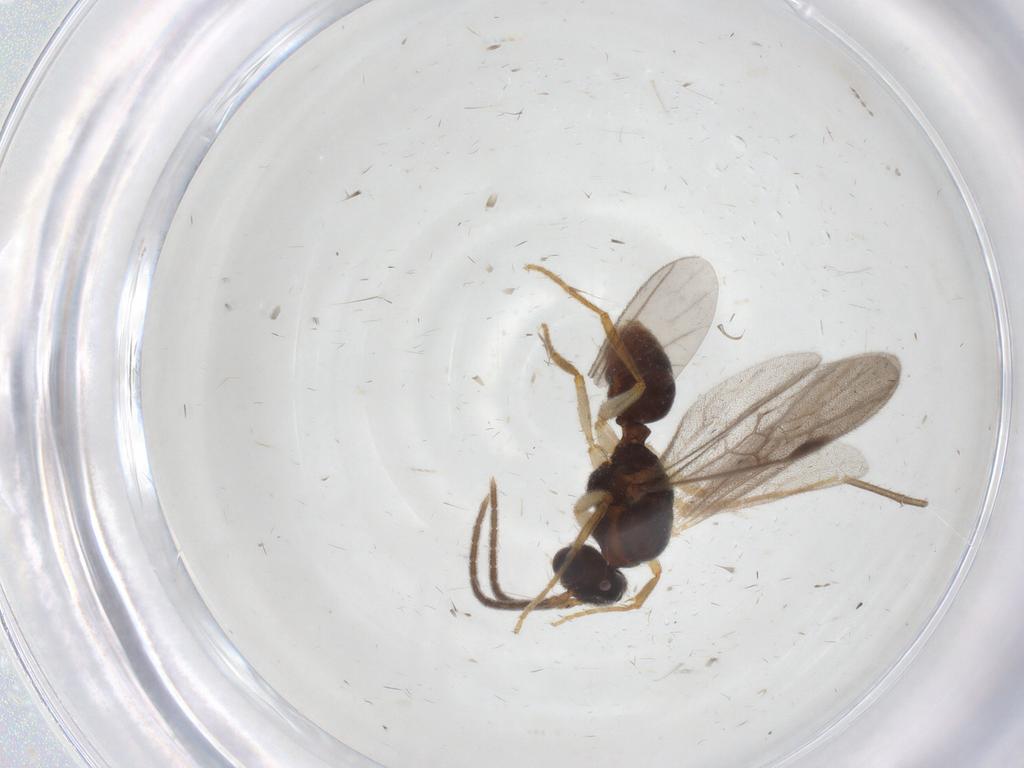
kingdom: Animalia
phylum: Arthropoda
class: Insecta
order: Hymenoptera
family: Formicidae
